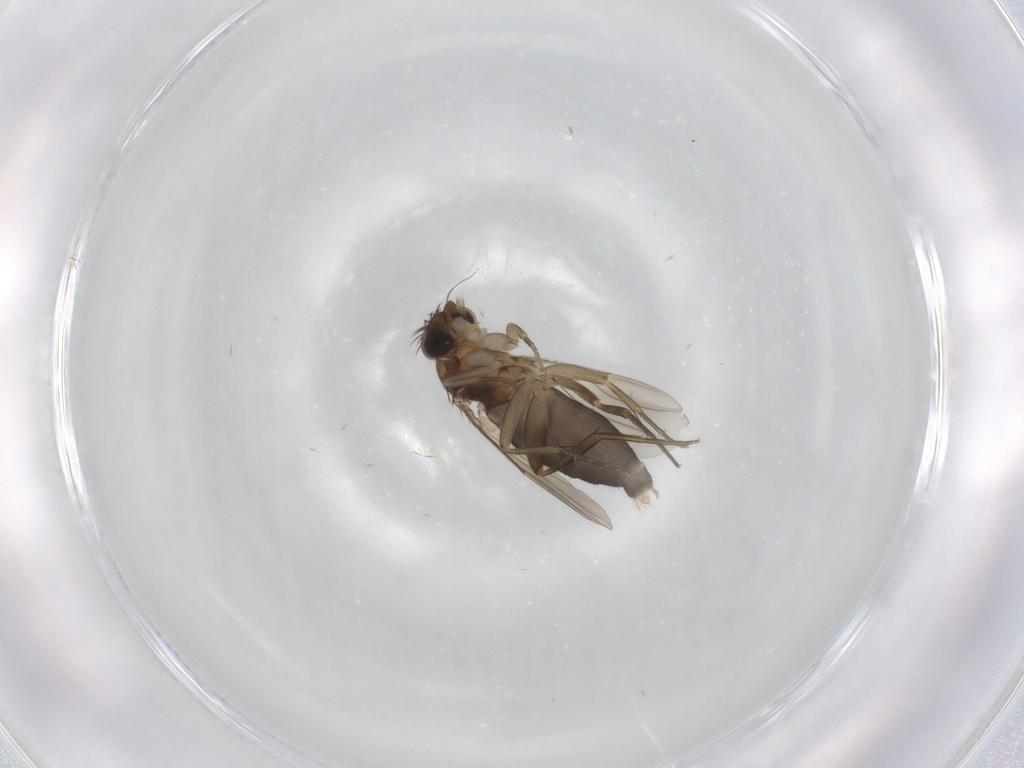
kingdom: Animalia
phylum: Arthropoda
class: Insecta
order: Diptera
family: Phoridae
